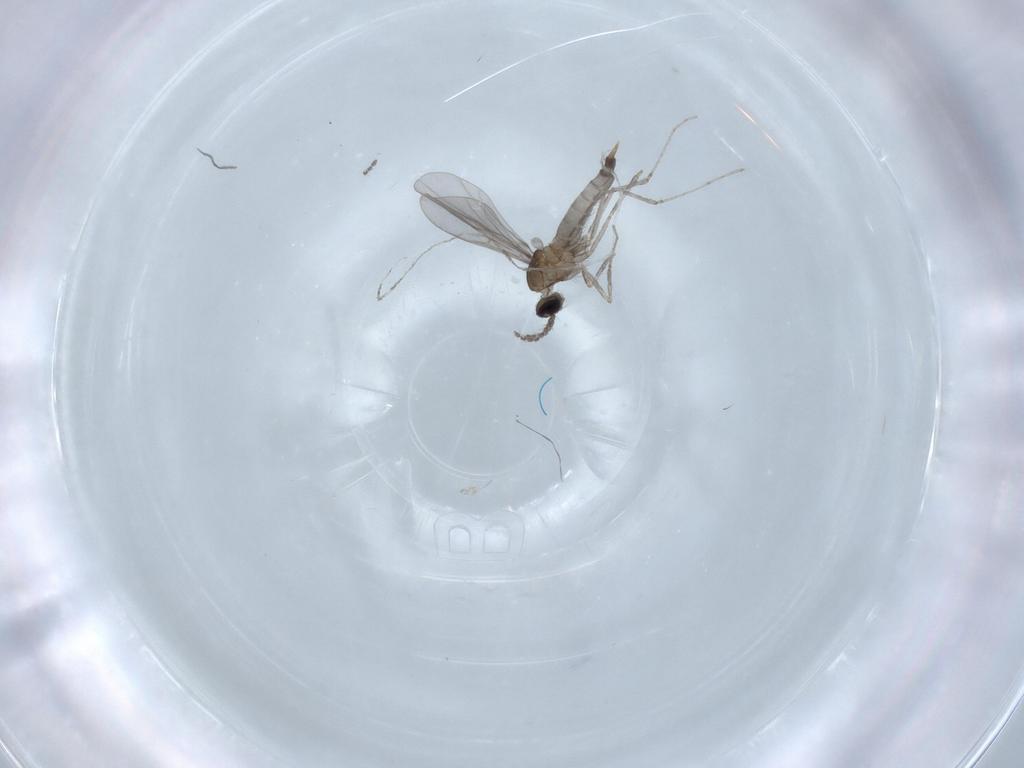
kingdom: Animalia
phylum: Arthropoda
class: Insecta
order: Diptera
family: Cecidomyiidae
